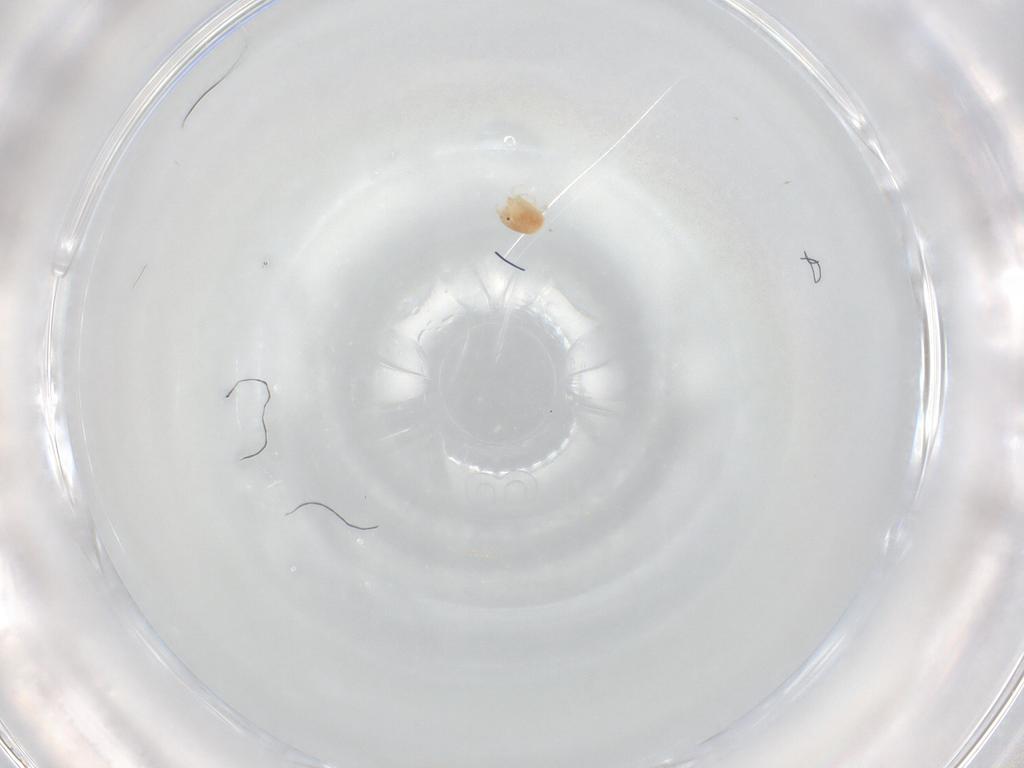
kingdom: Animalia
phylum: Arthropoda
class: Arachnida
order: Trombidiformes
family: Hygrobatidae
